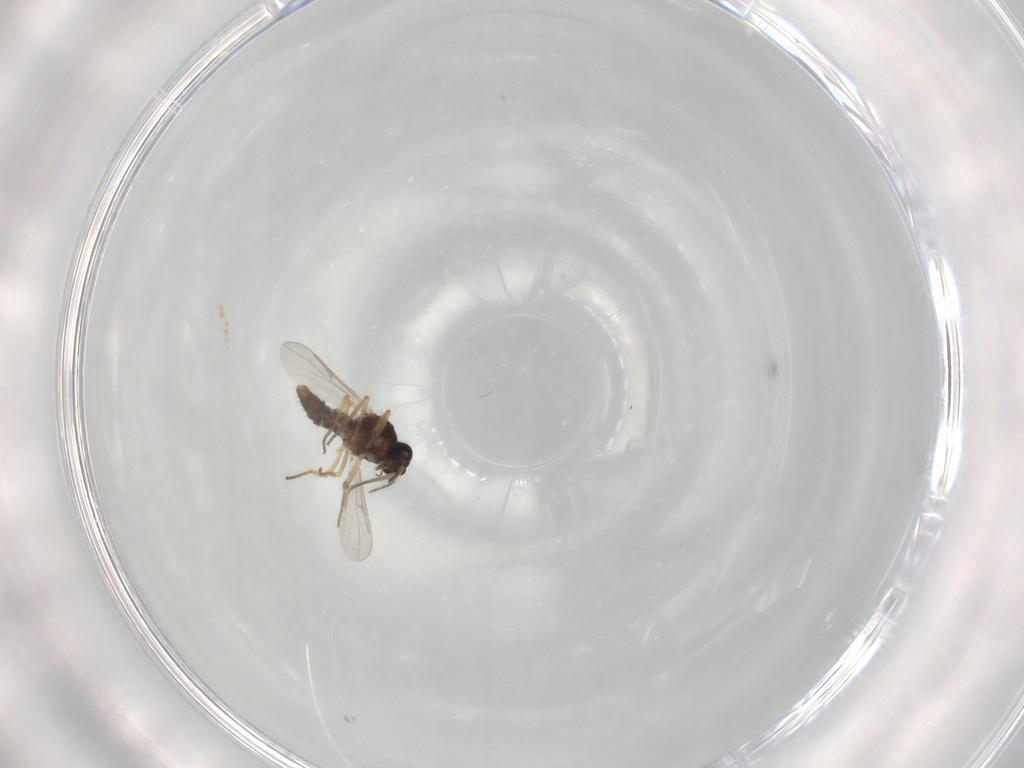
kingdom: Animalia
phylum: Arthropoda
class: Insecta
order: Diptera
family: Ceratopogonidae
